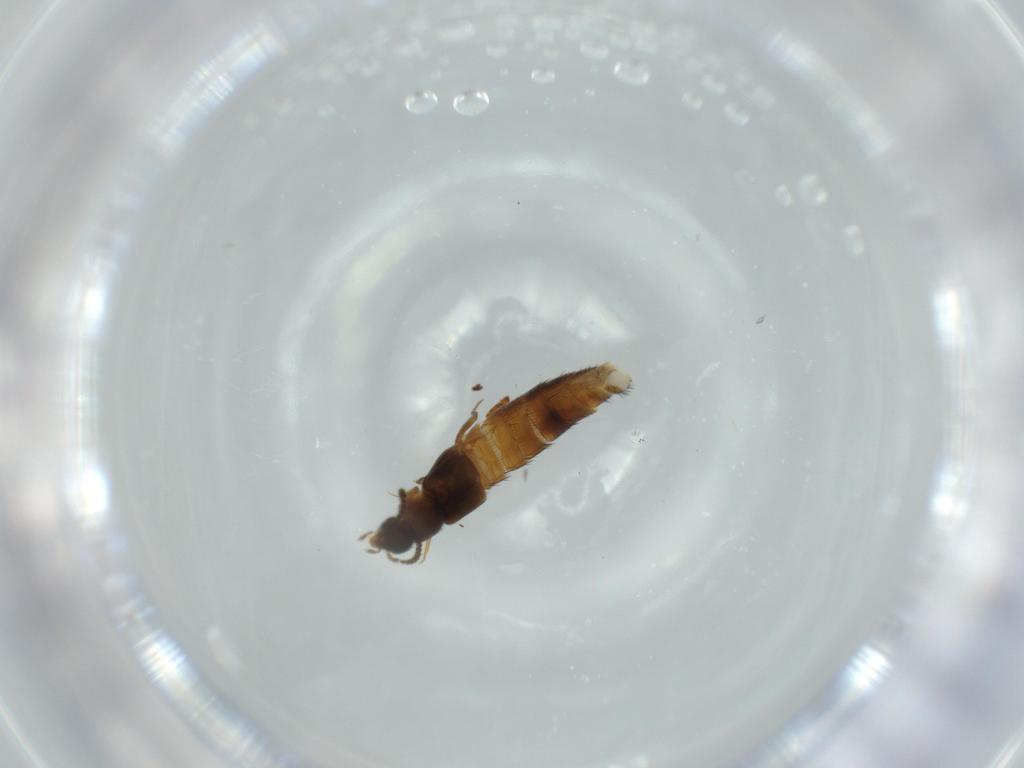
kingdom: Animalia
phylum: Arthropoda
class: Insecta
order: Coleoptera
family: Staphylinidae
